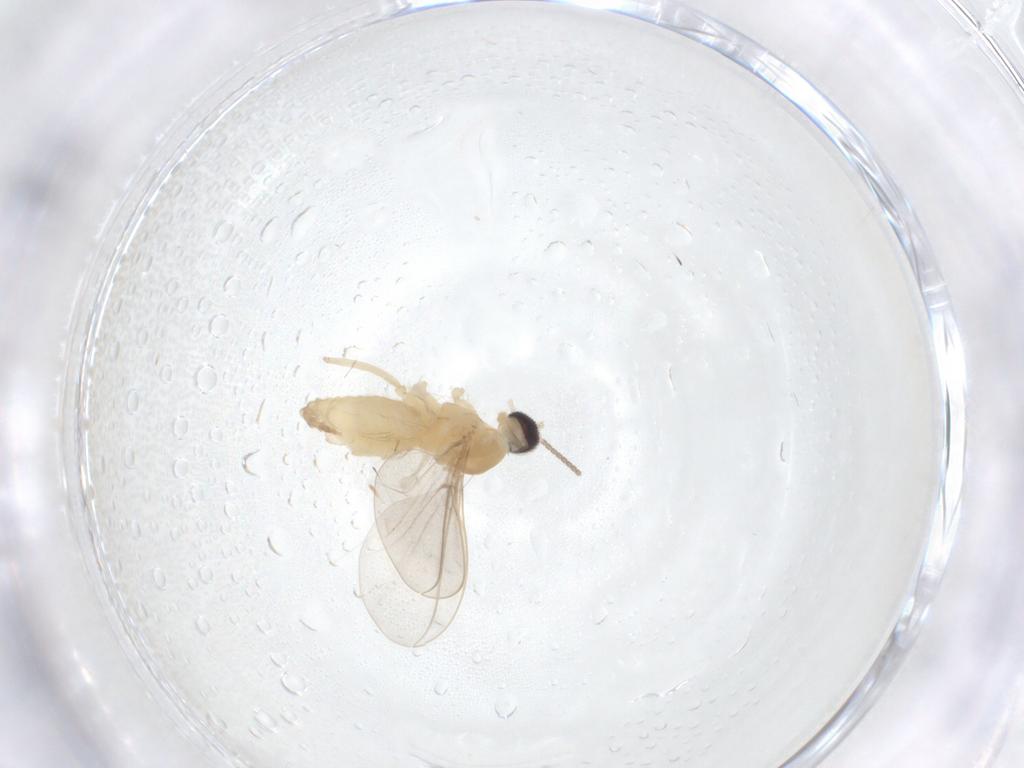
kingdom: Animalia
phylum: Arthropoda
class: Insecta
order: Diptera
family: Cecidomyiidae
